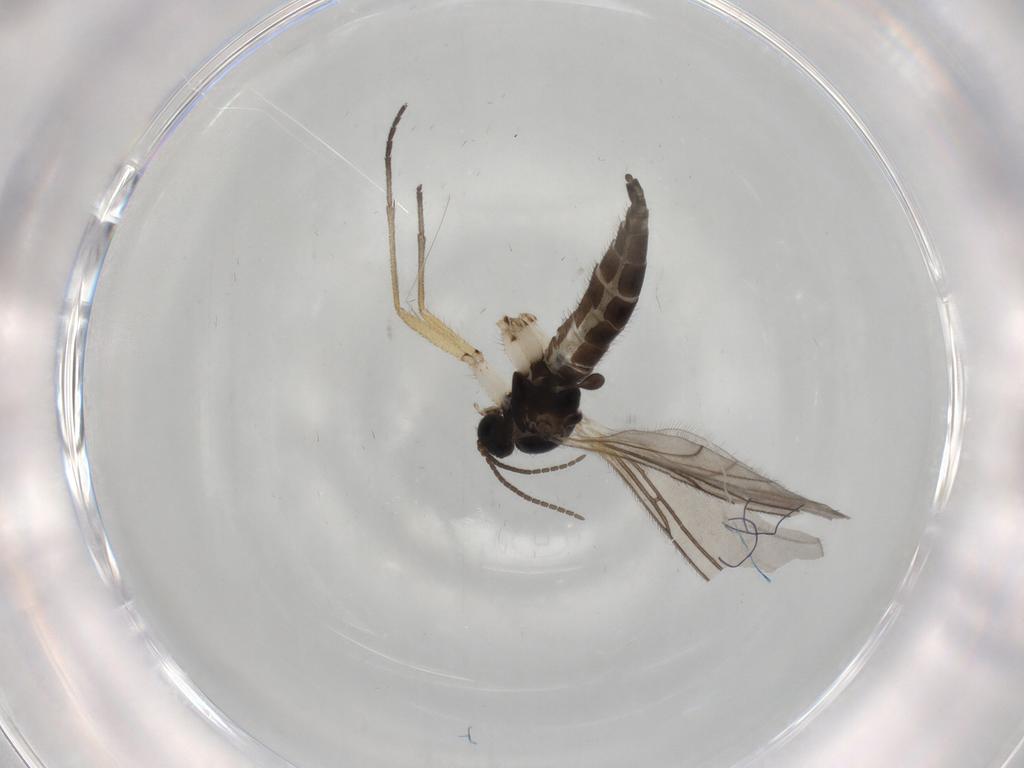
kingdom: Animalia
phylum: Arthropoda
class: Insecta
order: Diptera
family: Sciaridae
